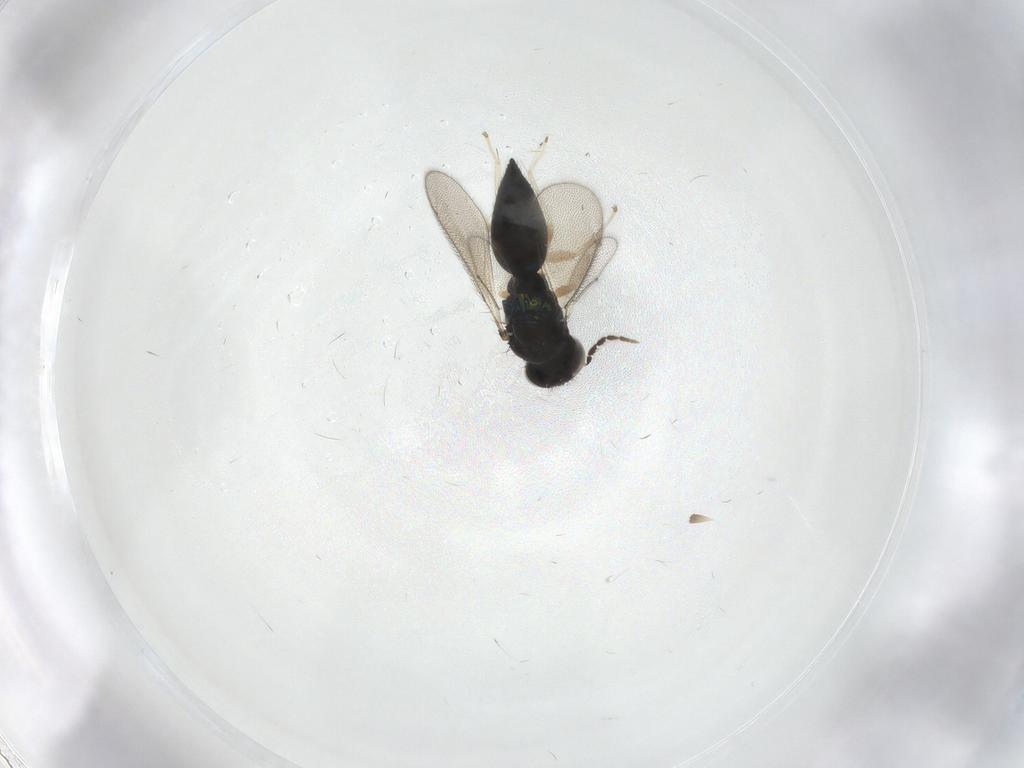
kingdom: Animalia
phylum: Arthropoda
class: Insecta
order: Hymenoptera
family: Eulophidae
